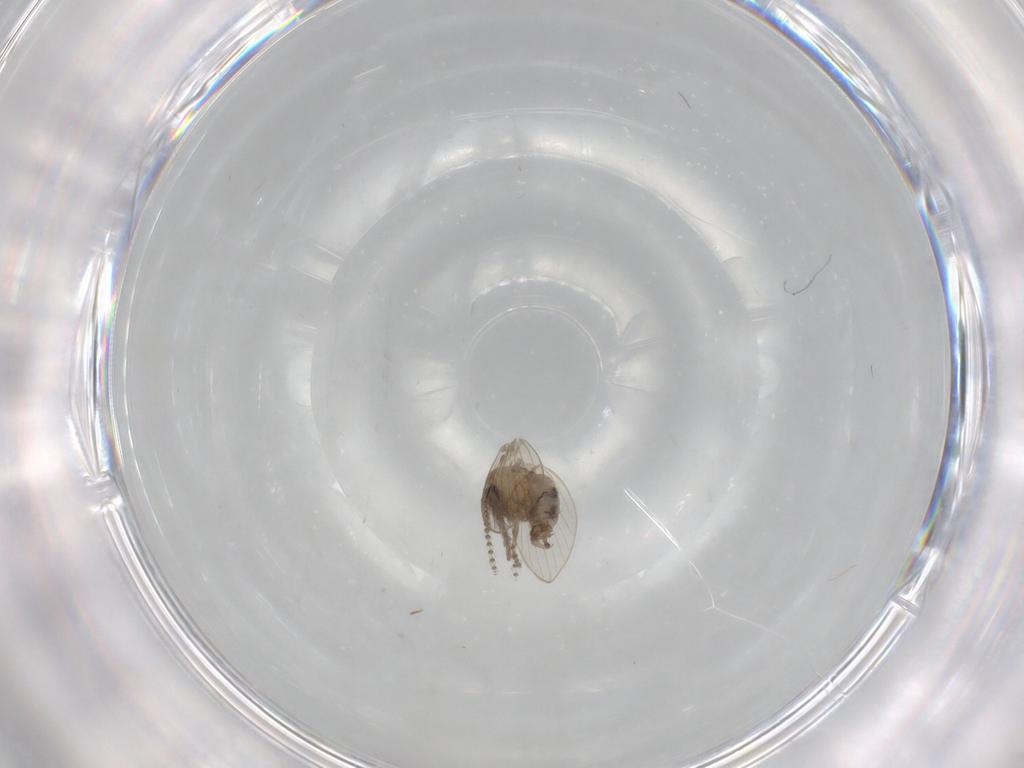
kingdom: Animalia
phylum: Arthropoda
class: Insecta
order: Diptera
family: Psychodidae
